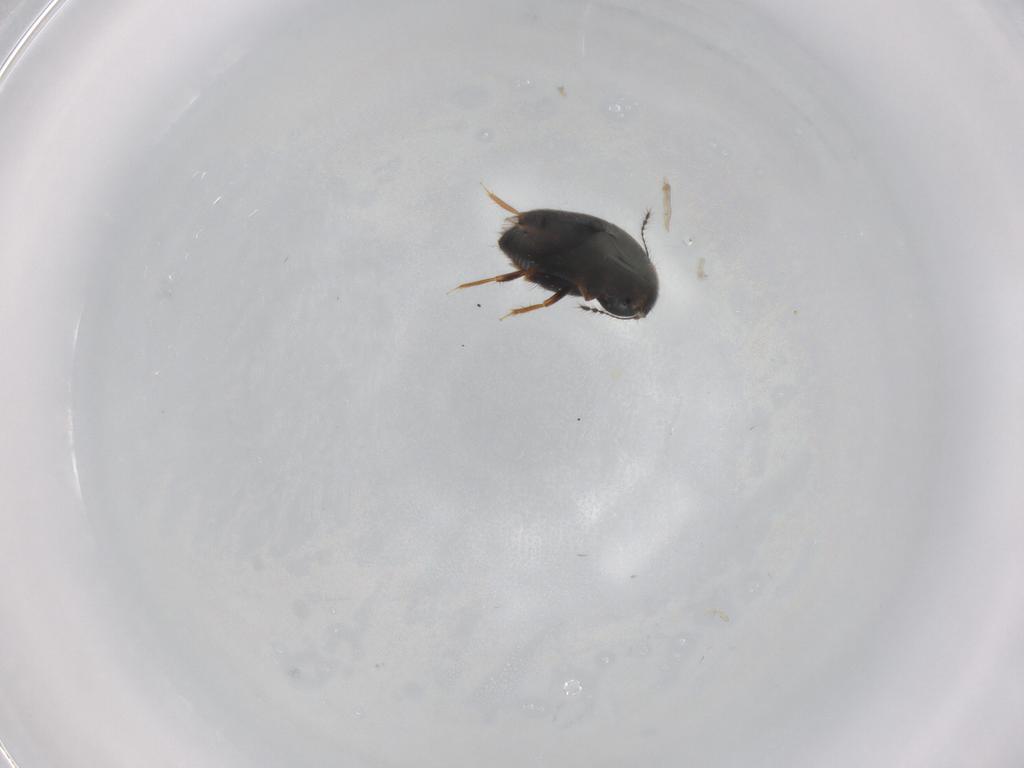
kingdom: Animalia
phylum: Arthropoda
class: Insecta
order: Coleoptera
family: Ptiliidae
